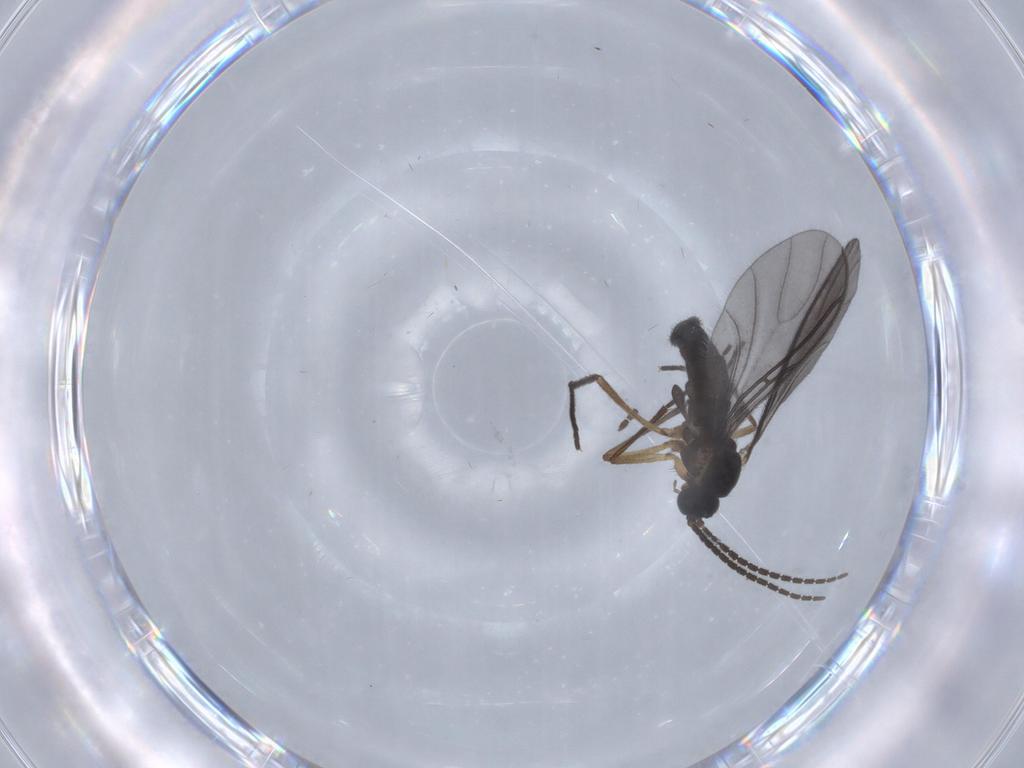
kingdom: Animalia
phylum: Arthropoda
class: Insecta
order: Diptera
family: Sciaridae
